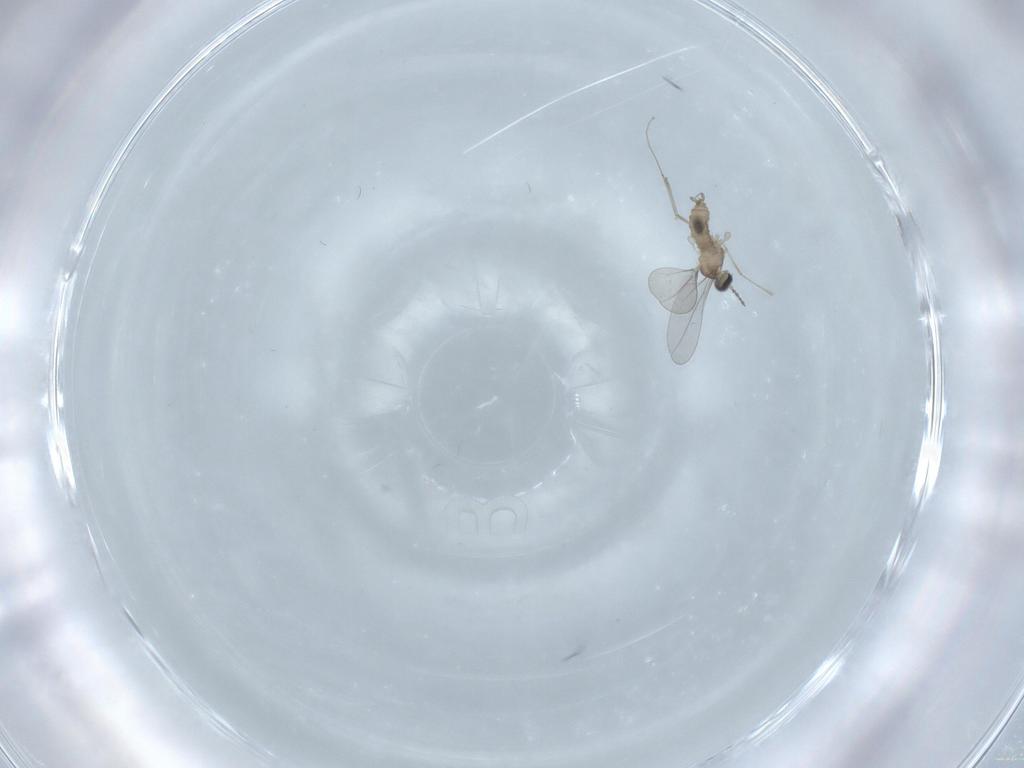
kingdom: Animalia
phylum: Arthropoda
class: Insecta
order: Diptera
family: Cecidomyiidae
